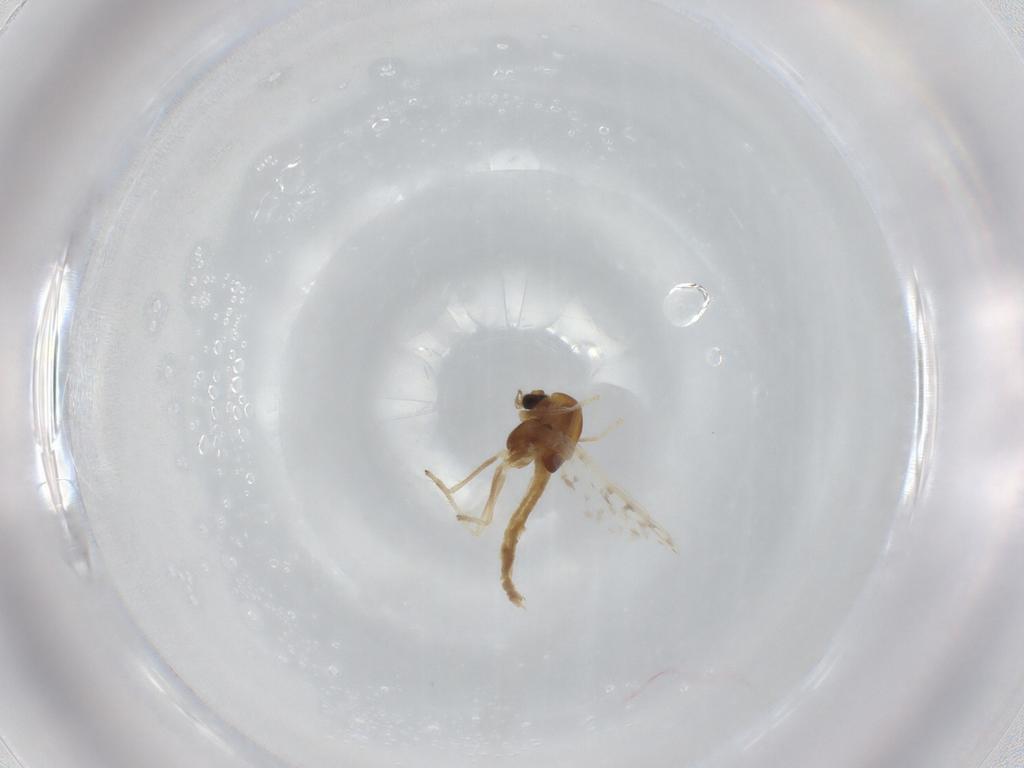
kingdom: Animalia
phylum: Arthropoda
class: Insecta
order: Diptera
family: Chironomidae
